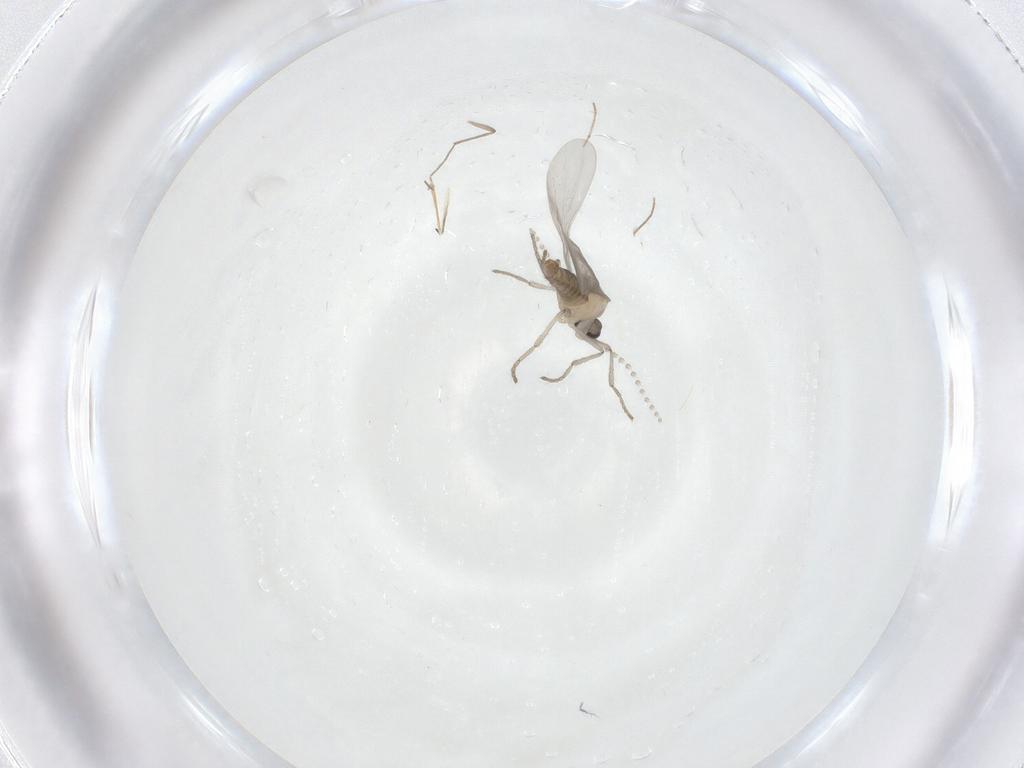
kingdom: Animalia
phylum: Arthropoda
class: Insecta
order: Diptera
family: Chironomidae
